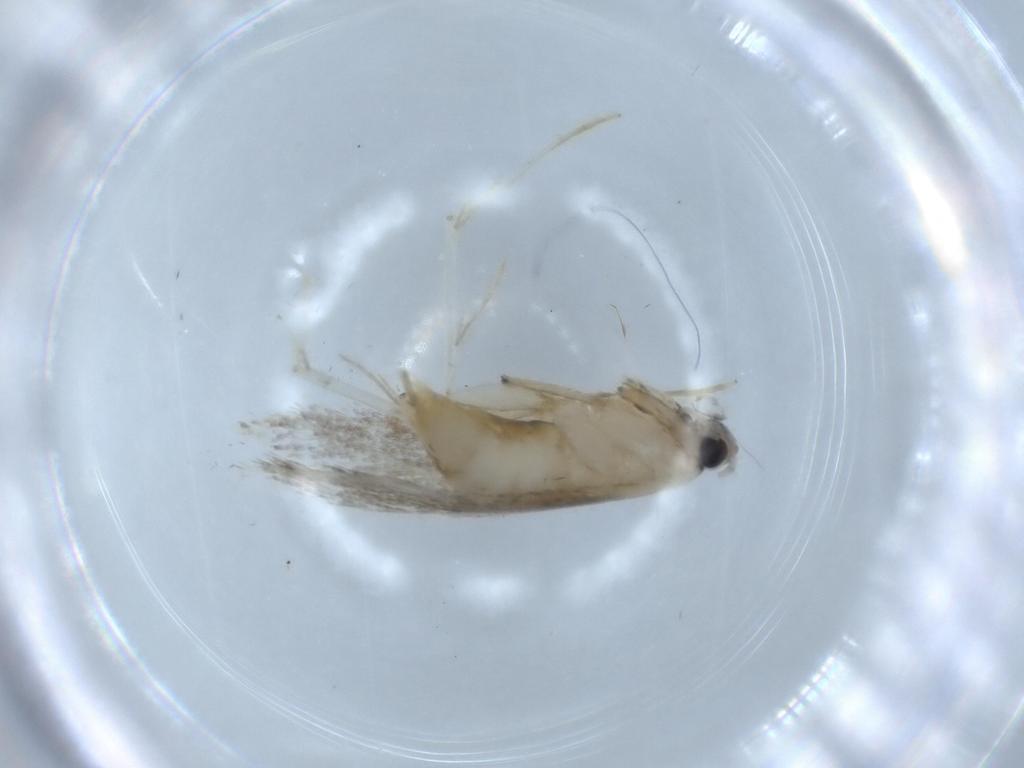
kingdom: Animalia
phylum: Arthropoda
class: Insecta
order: Lepidoptera
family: Tineidae
